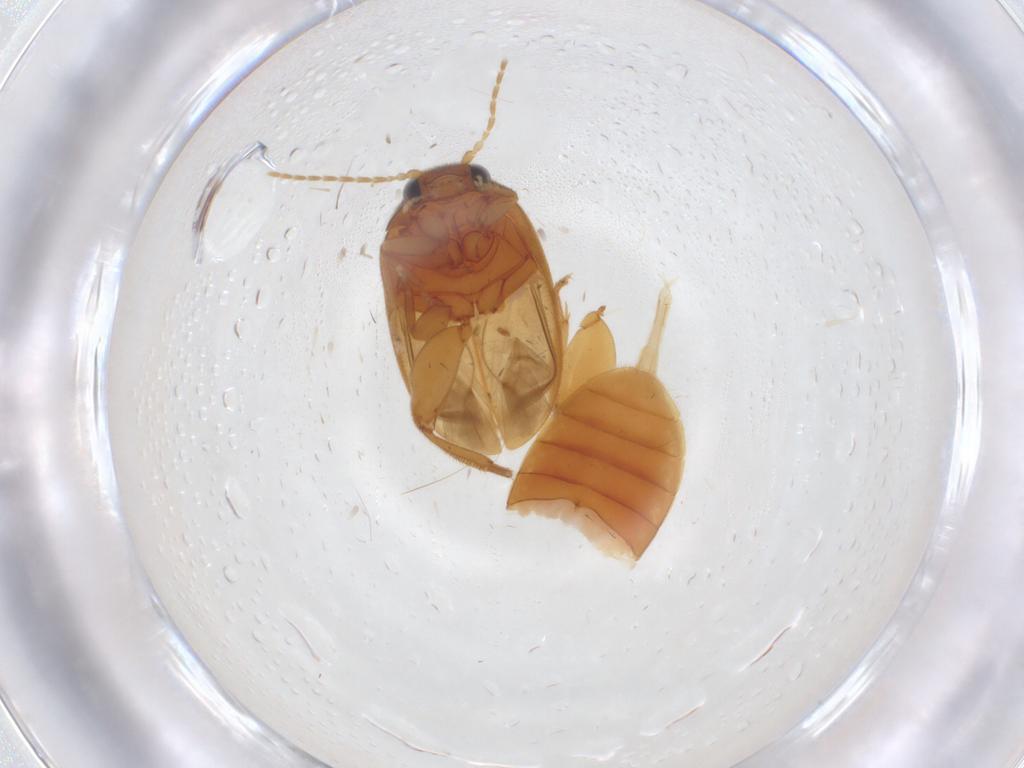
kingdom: Animalia
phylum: Arthropoda
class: Insecta
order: Coleoptera
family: Scirtidae
